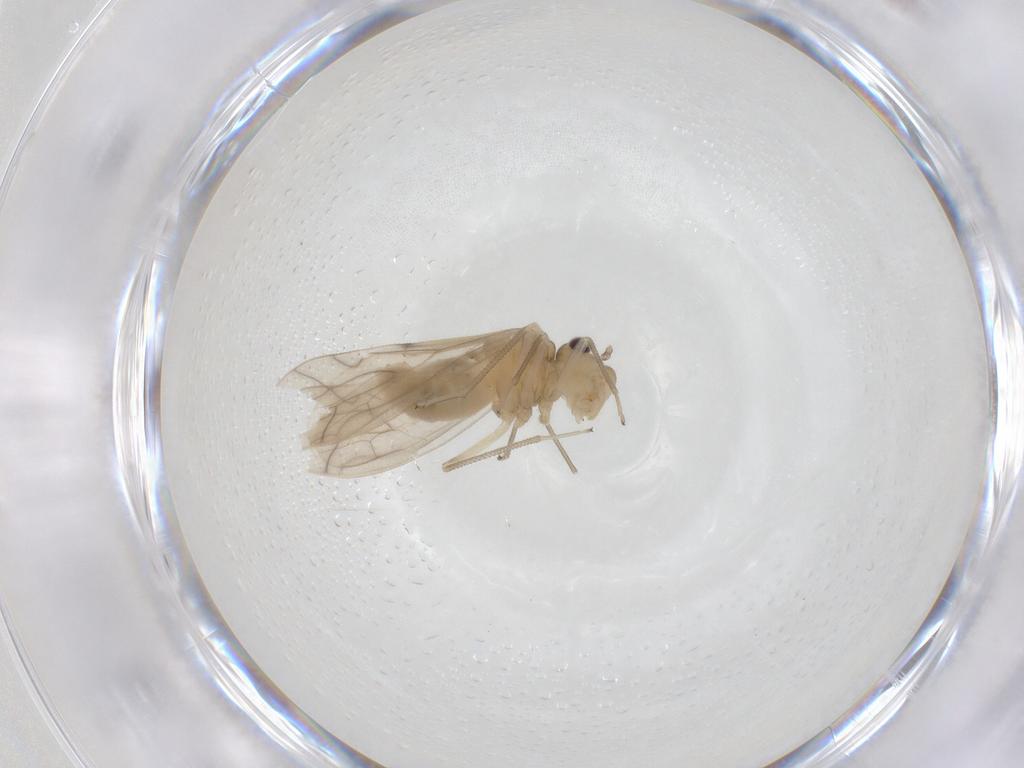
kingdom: Animalia
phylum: Arthropoda
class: Insecta
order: Psocodea
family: Caeciliusidae
